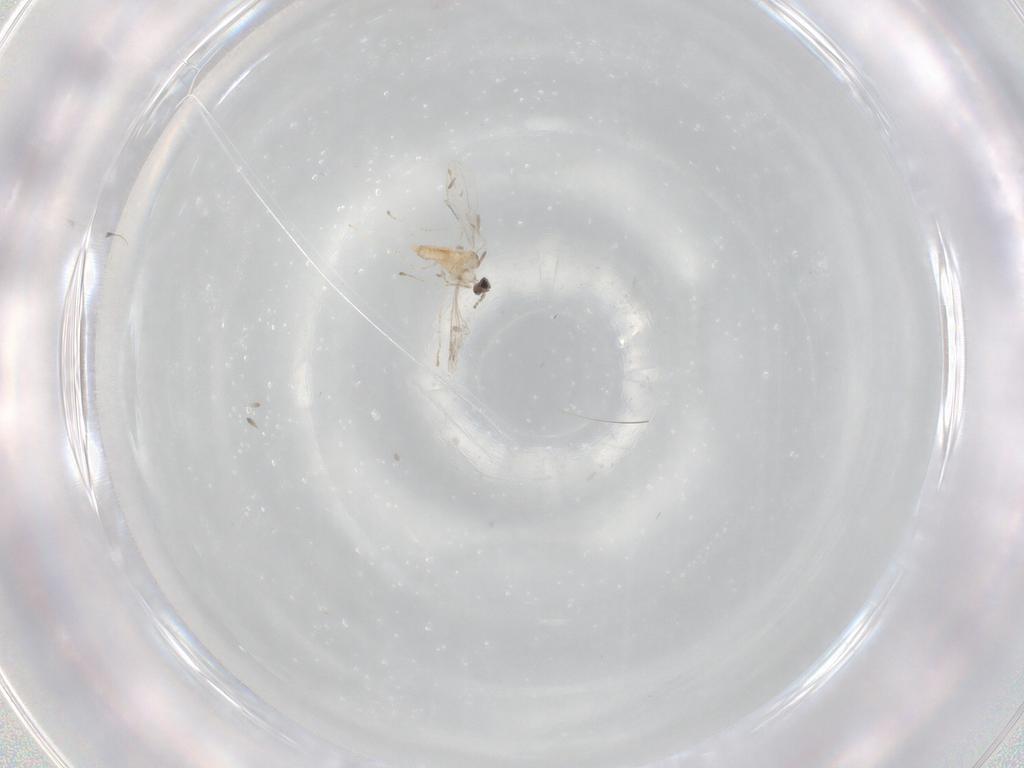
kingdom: Animalia
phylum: Arthropoda
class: Insecta
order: Diptera
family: Cecidomyiidae
